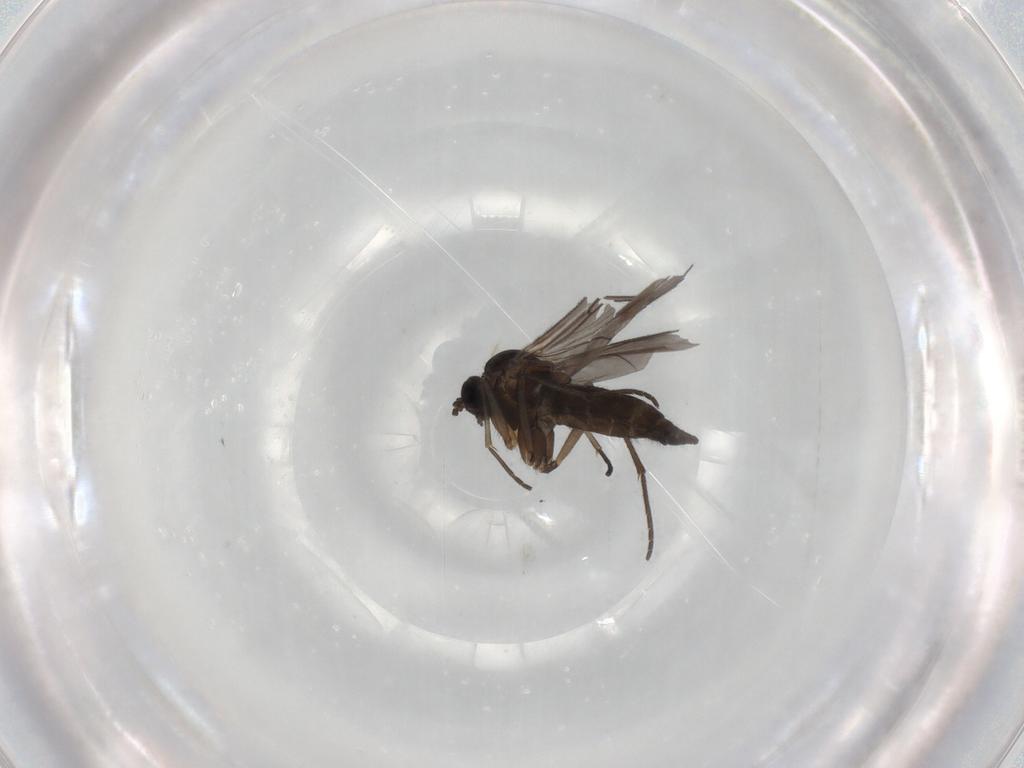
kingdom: Animalia
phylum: Arthropoda
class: Insecta
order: Diptera
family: Sciaridae
